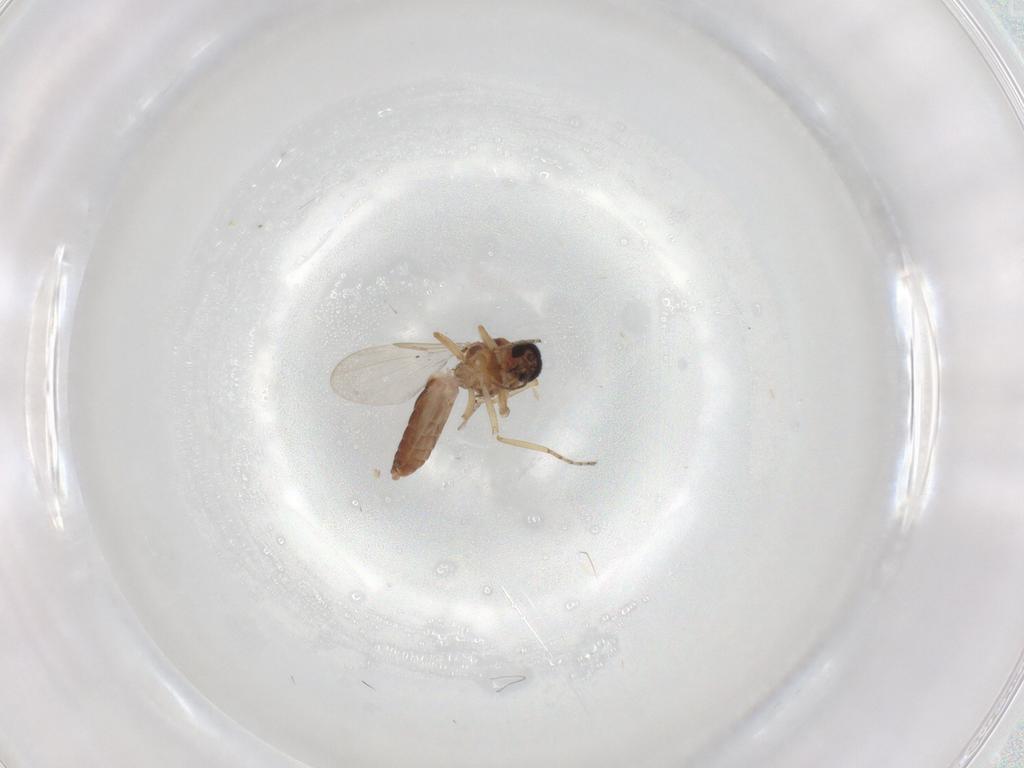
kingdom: Animalia
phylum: Arthropoda
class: Insecta
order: Diptera
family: Ceratopogonidae
